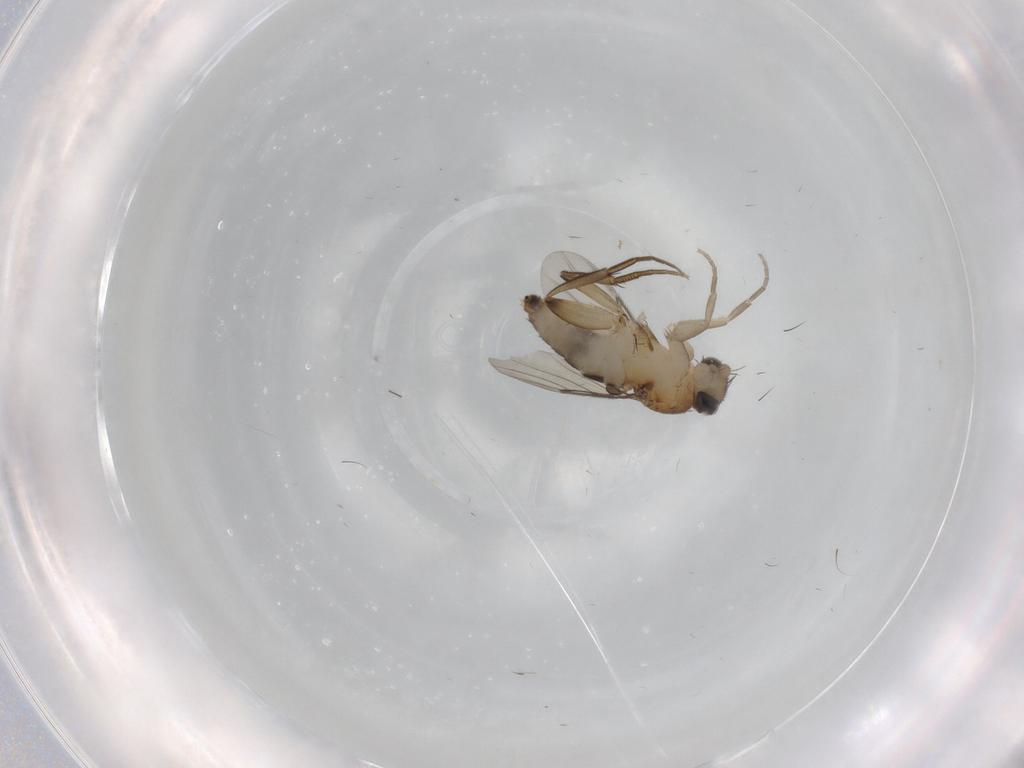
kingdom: Animalia
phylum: Arthropoda
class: Insecta
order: Diptera
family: Phoridae
